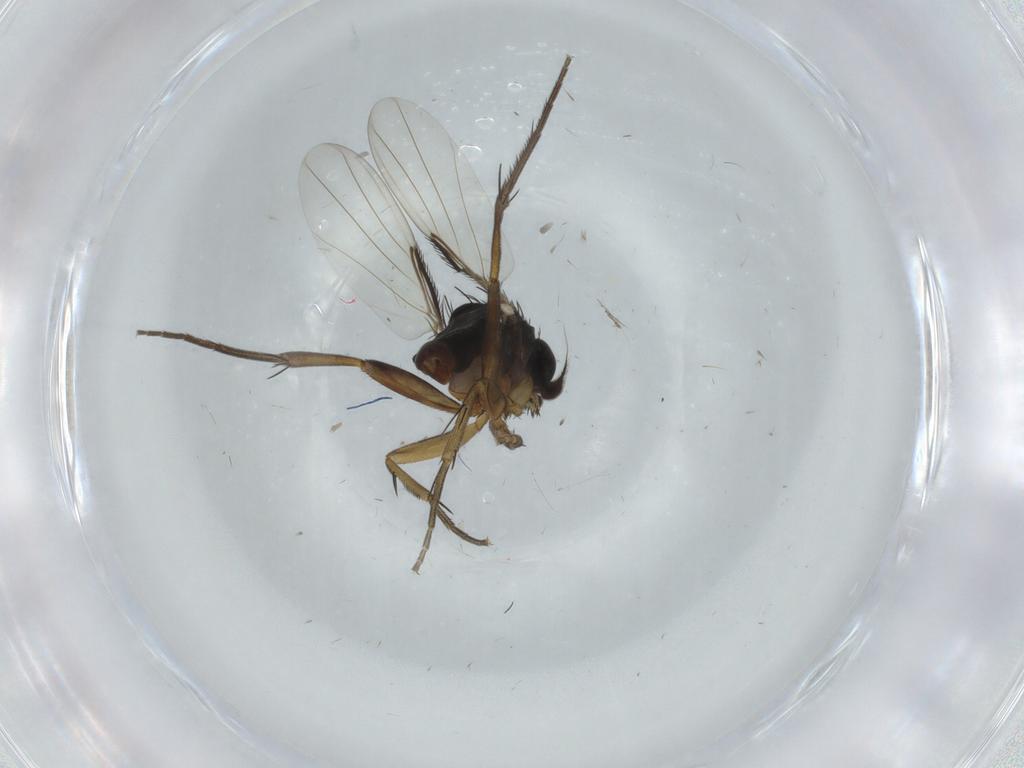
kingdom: Animalia
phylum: Arthropoda
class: Insecta
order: Diptera
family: Phoridae
